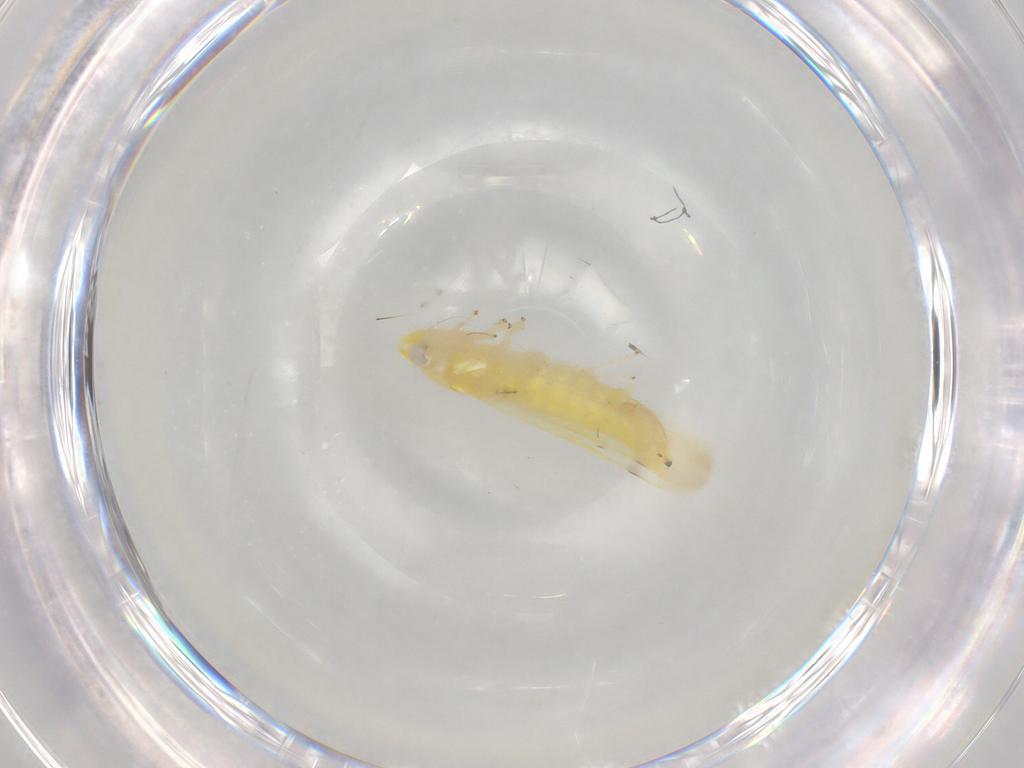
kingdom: Animalia
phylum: Arthropoda
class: Insecta
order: Hemiptera
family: Cicadellidae
